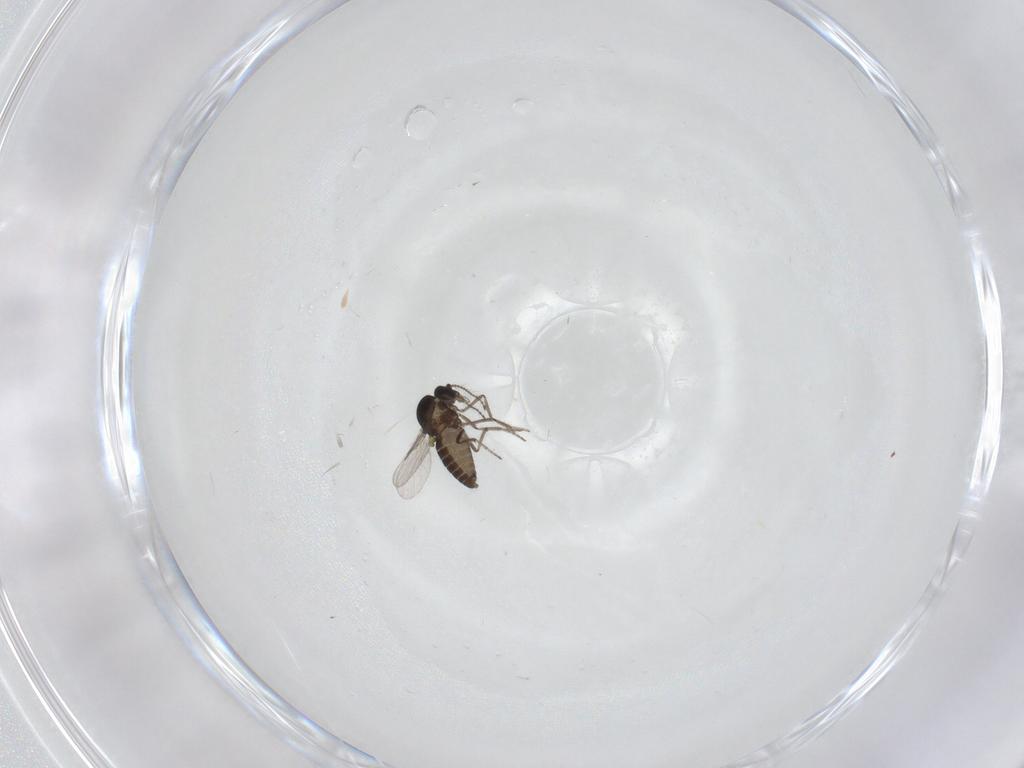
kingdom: Animalia
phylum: Arthropoda
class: Insecta
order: Diptera
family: Ceratopogonidae
